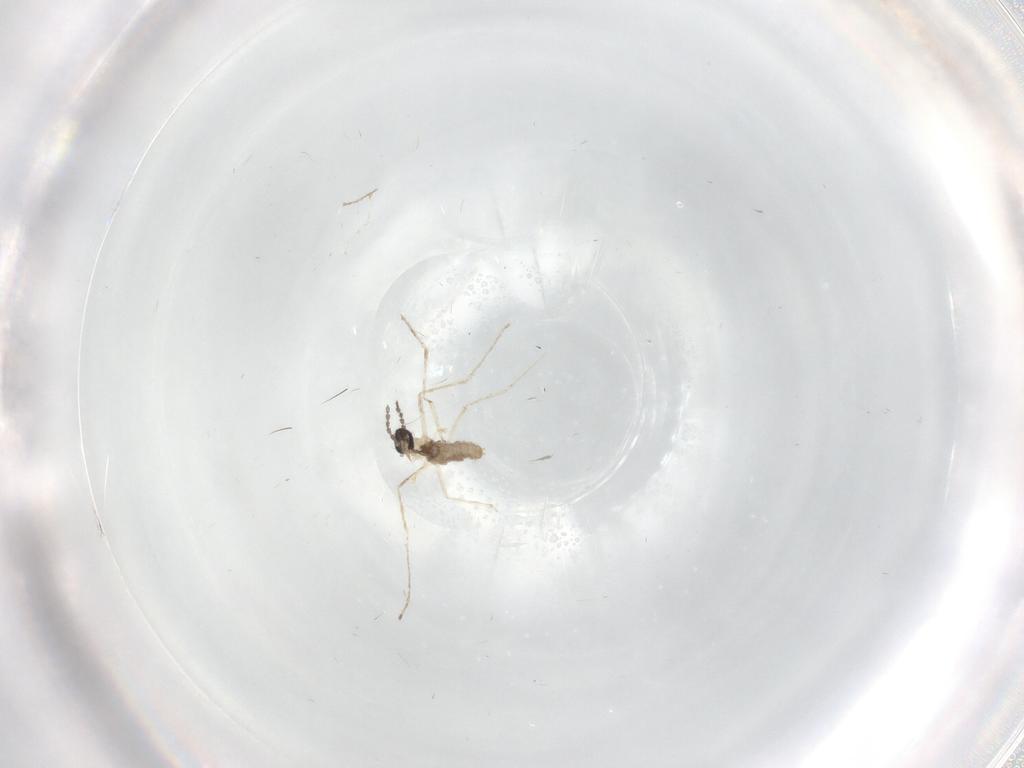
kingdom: Animalia
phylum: Arthropoda
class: Insecta
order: Diptera
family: Cecidomyiidae
